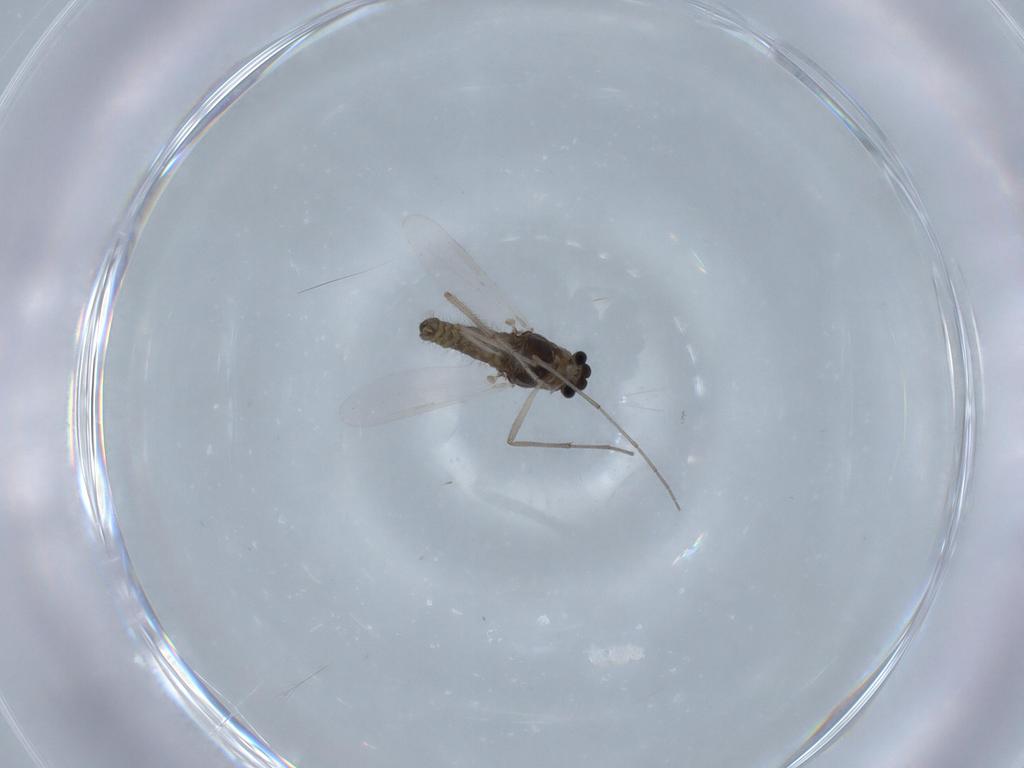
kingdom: Animalia
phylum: Arthropoda
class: Insecta
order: Diptera
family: Chironomidae
